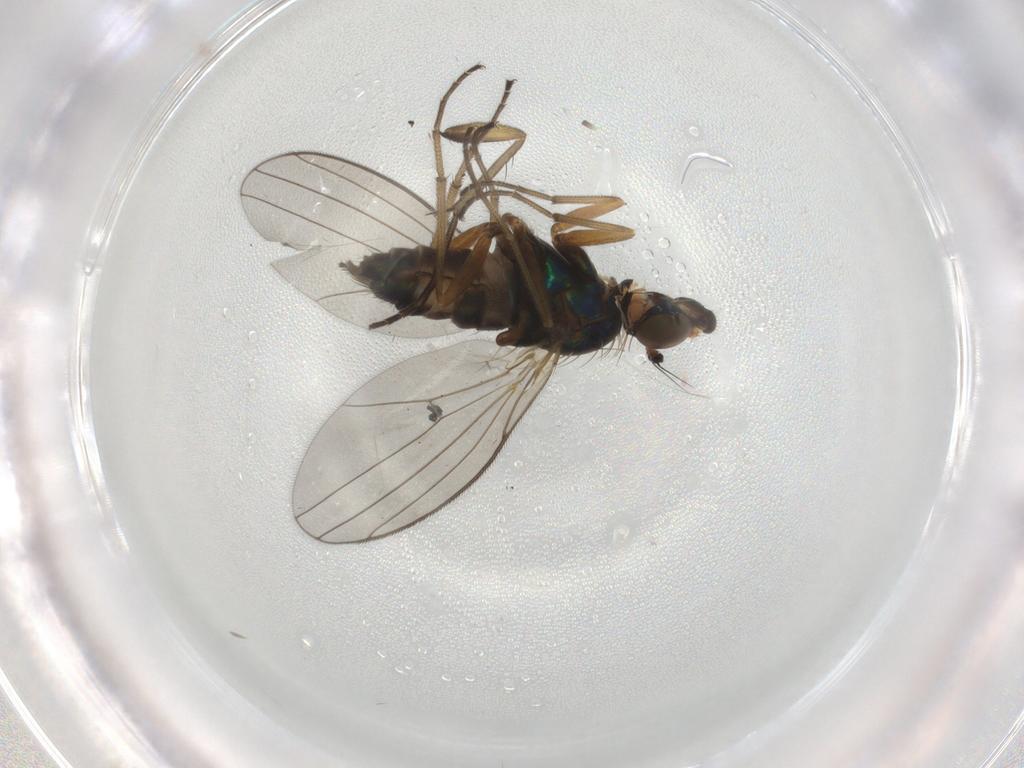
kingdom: Animalia
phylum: Arthropoda
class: Insecta
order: Diptera
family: Dolichopodidae
